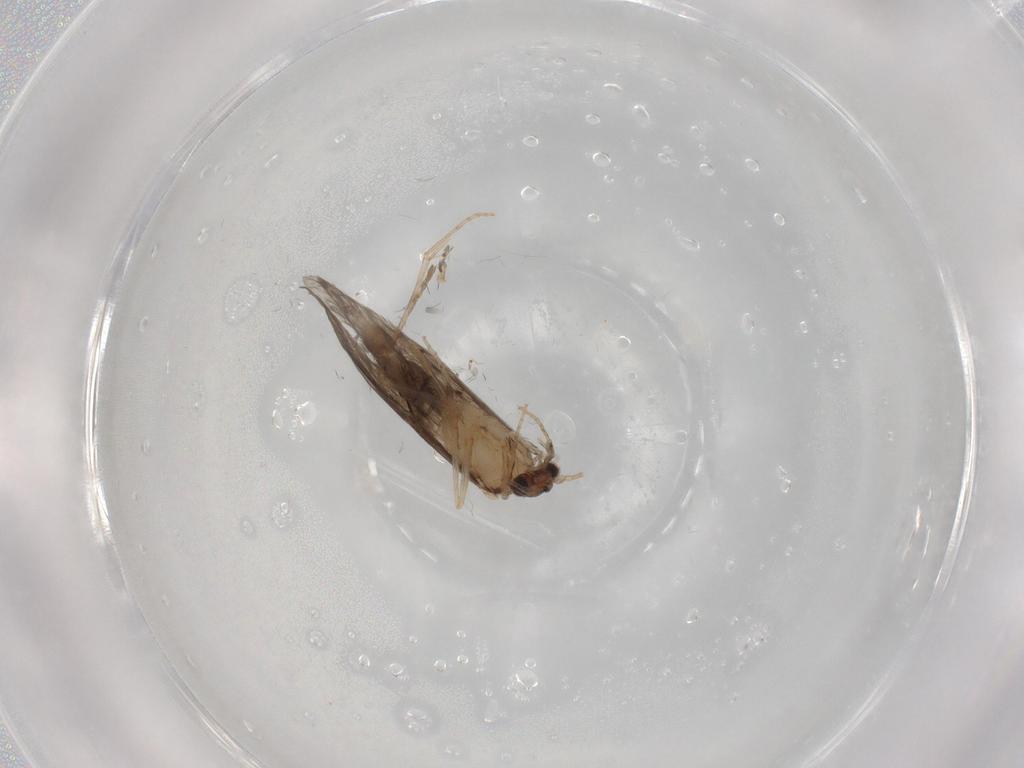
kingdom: Animalia
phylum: Arthropoda
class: Insecta
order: Trichoptera
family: Hydroptilidae
